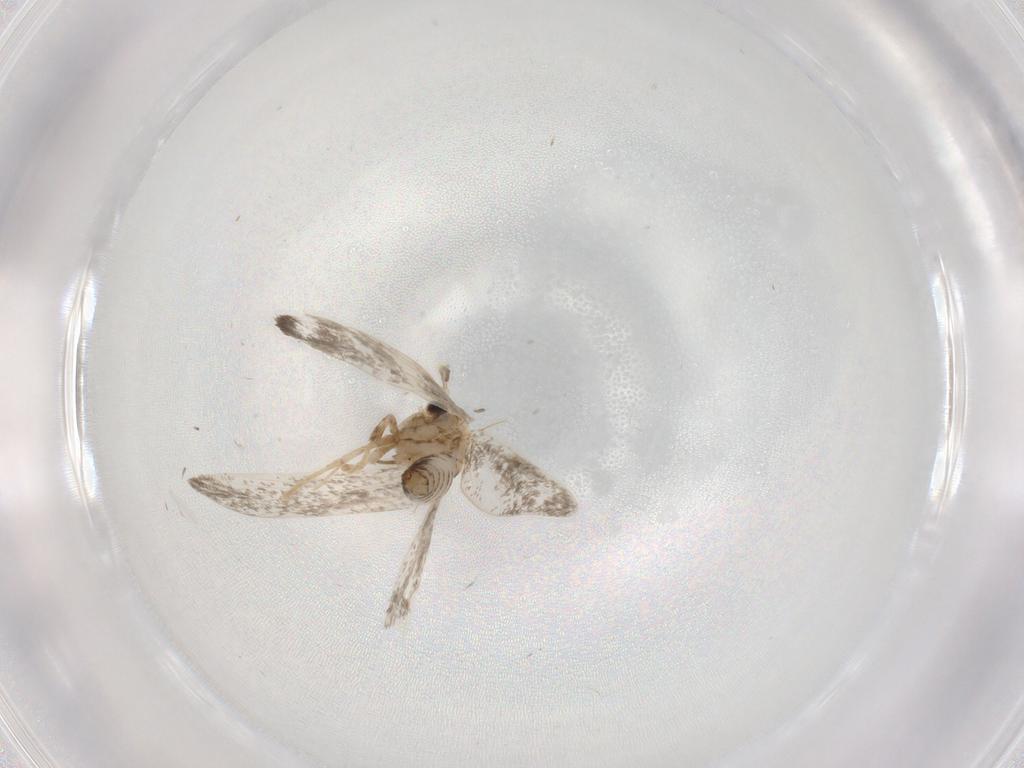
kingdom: Animalia
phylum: Arthropoda
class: Insecta
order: Lepidoptera
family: Psychidae
